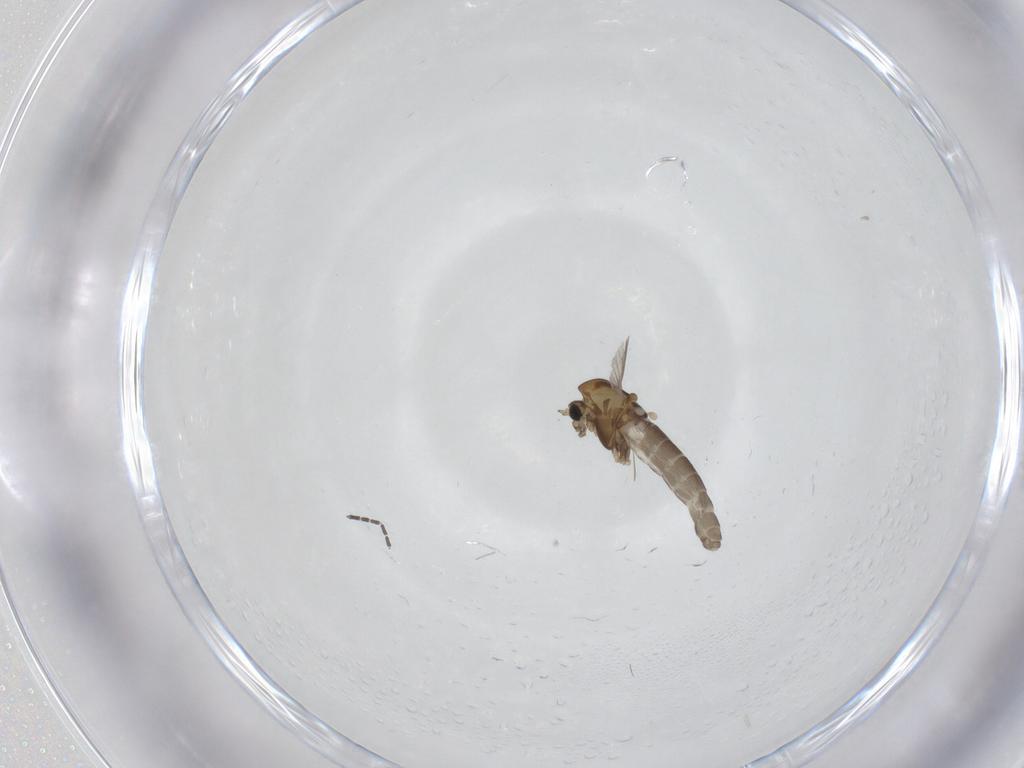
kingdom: Animalia
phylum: Arthropoda
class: Insecta
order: Diptera
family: Chironomidae
